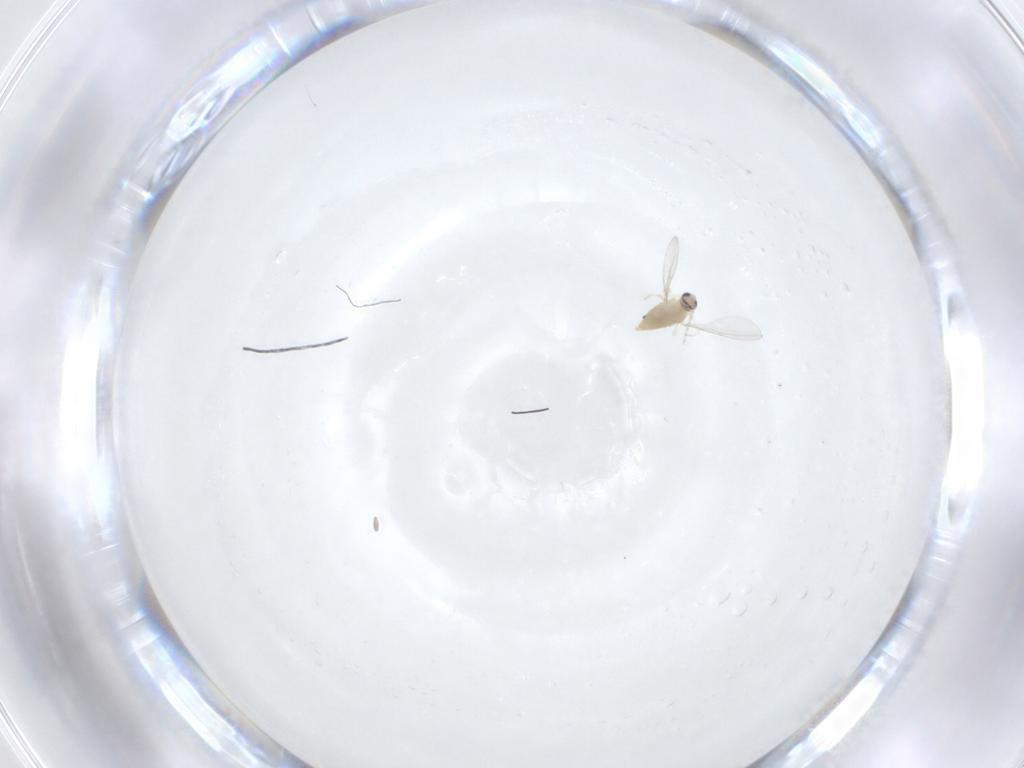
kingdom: Animalia
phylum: Arthropoda
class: Insecta
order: Diptera
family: Cecidomyiidae
